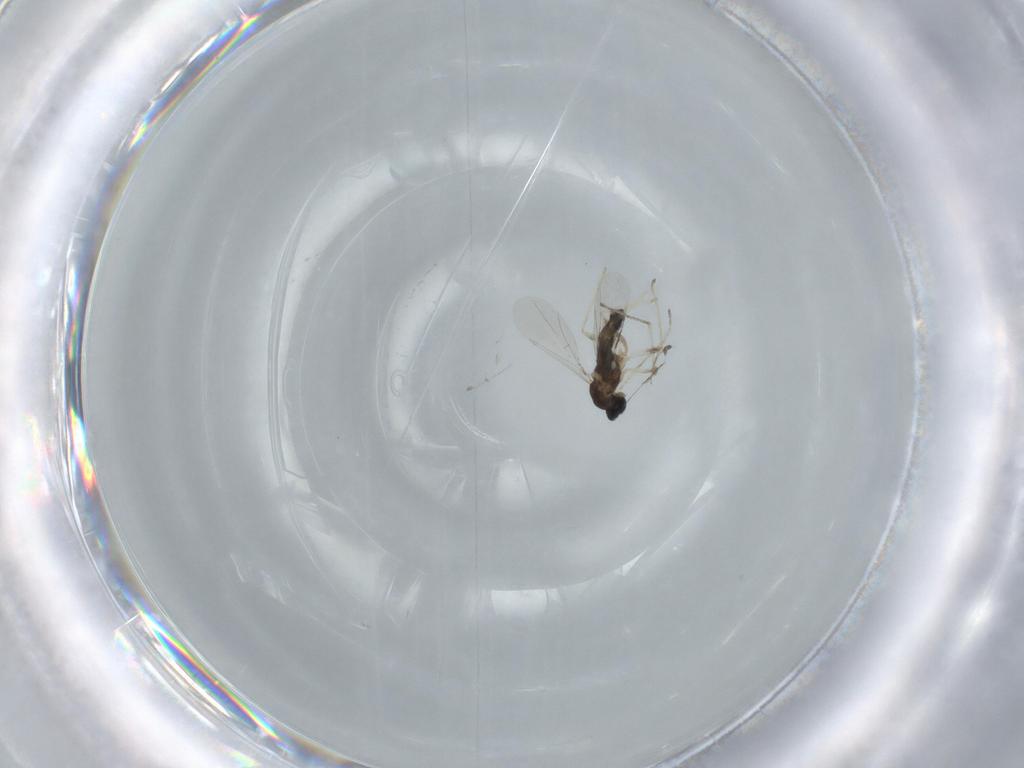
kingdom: Animalia
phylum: Arthropoda
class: Insecta
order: Diptera
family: Cecidomyiidae
